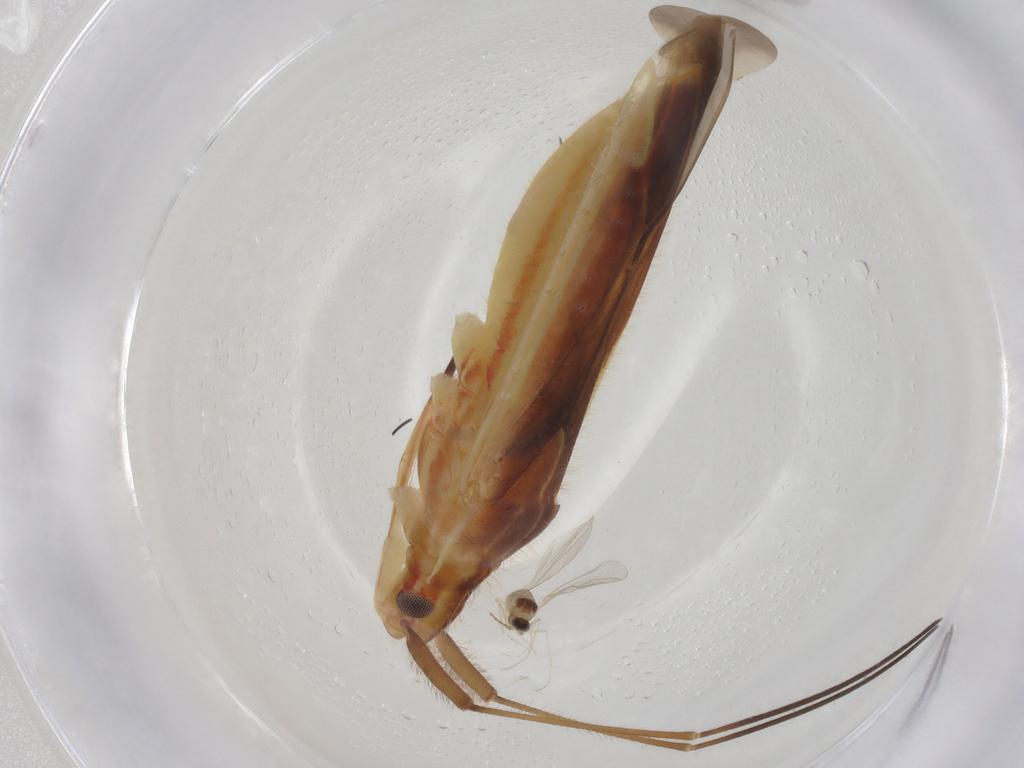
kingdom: Animalia
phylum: Arthropoda
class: Insecta
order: Diptera
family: Cecidomyiidae
